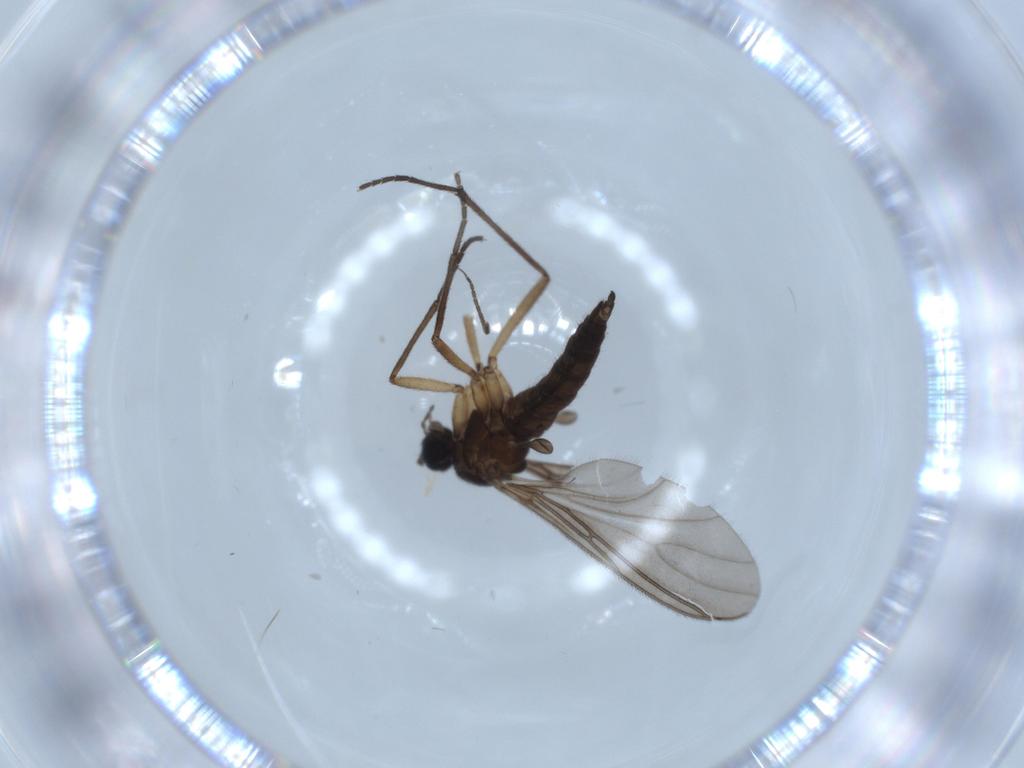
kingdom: Animalia
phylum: Arthropoda
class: Insecta
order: Diptera
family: Sciaridae
